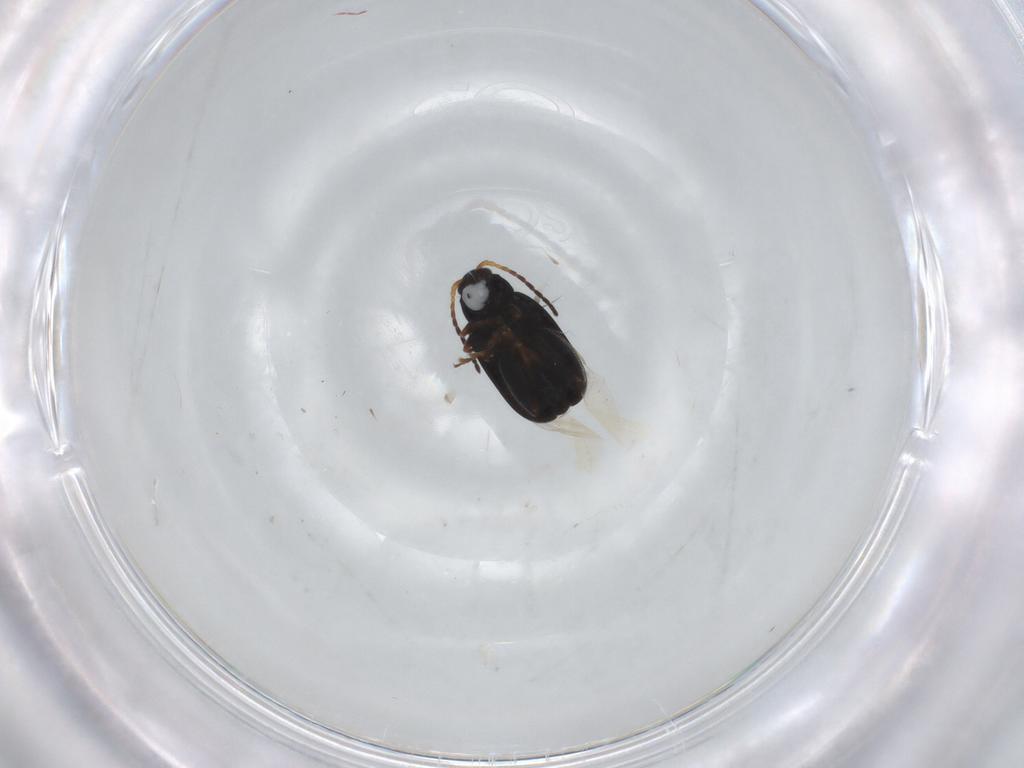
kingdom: Animalia
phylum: Arthropoda
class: Insecta
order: Coleoptera
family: Chrysomelidae
